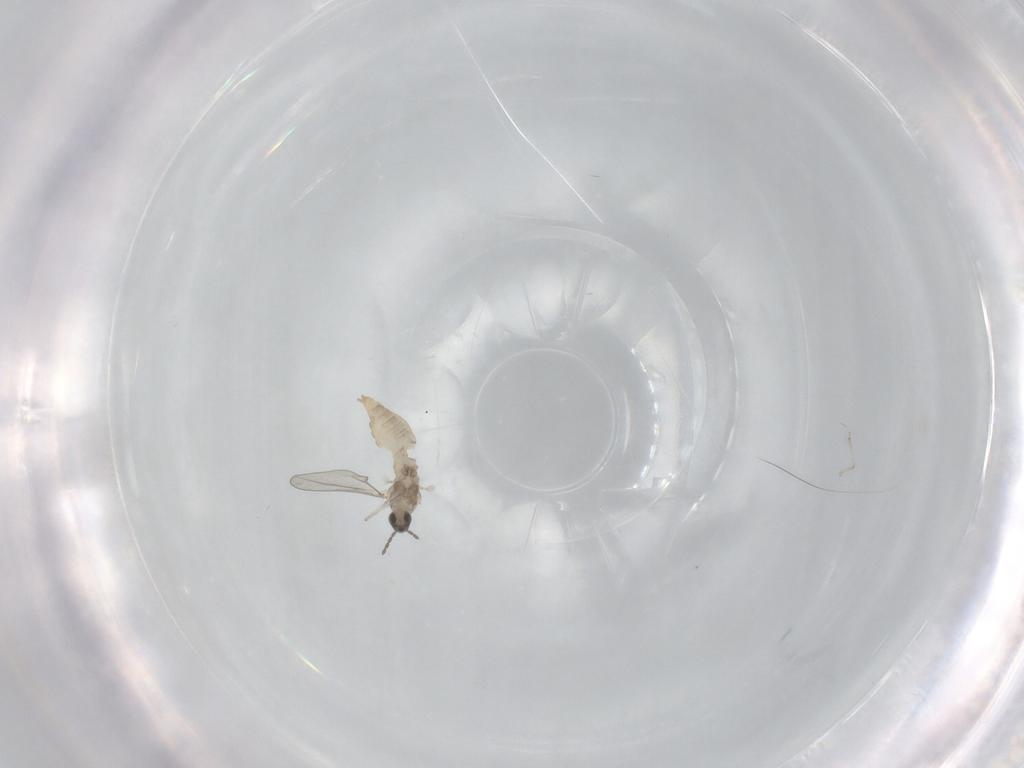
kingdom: Animalia
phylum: Arthropoda
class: Insecta
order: Diptera
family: Cecidomyiidae
